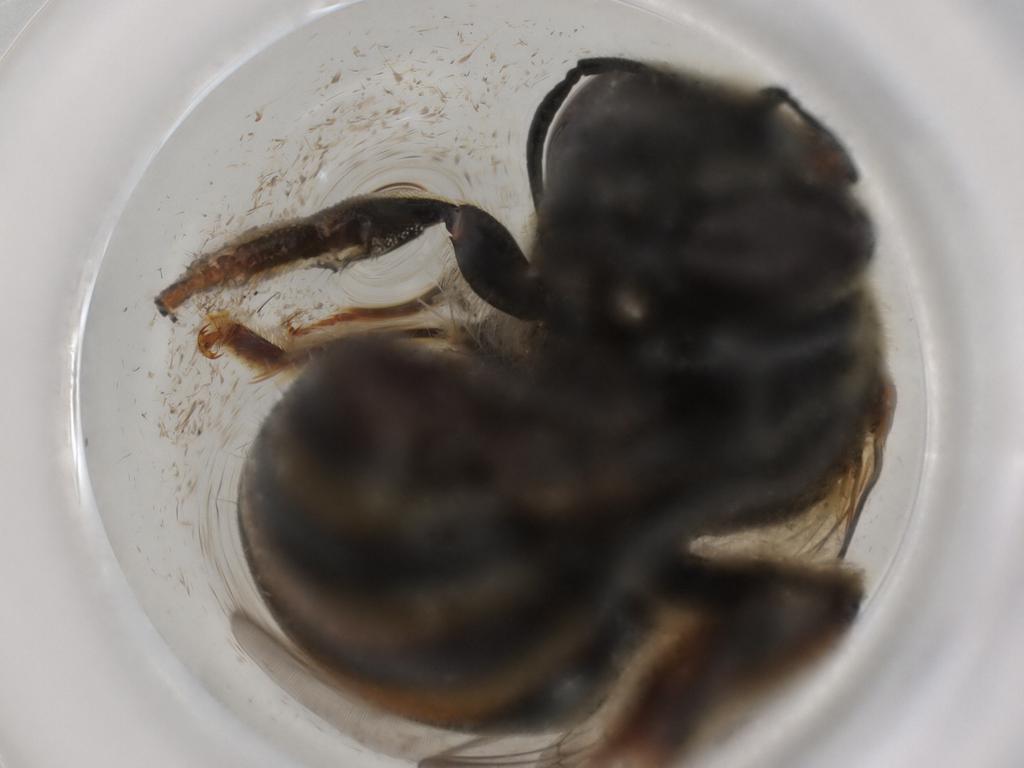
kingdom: Animalia
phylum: Arthropoda
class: Insecta
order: Hymenoptera
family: Halictidae
